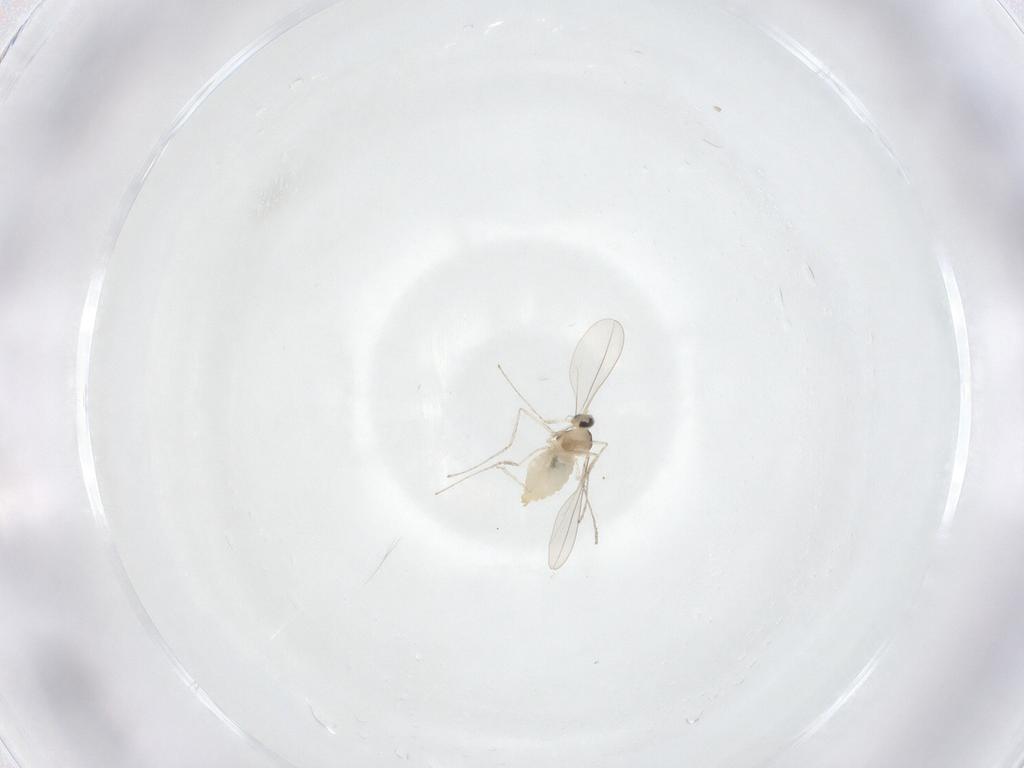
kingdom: Animalia
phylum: Arthropoda
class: Insecta
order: Diptera
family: Cecidomyiidae
